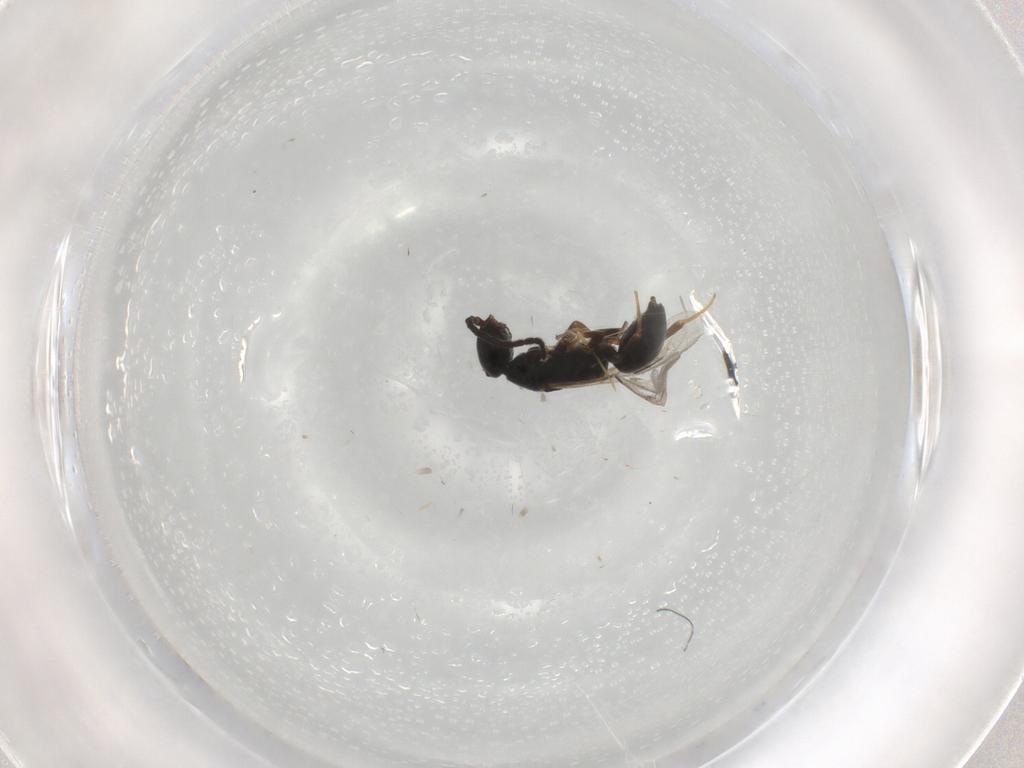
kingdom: Animalia
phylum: Arthropoda
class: Insecta
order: Hymenoptera
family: Bethylidae
